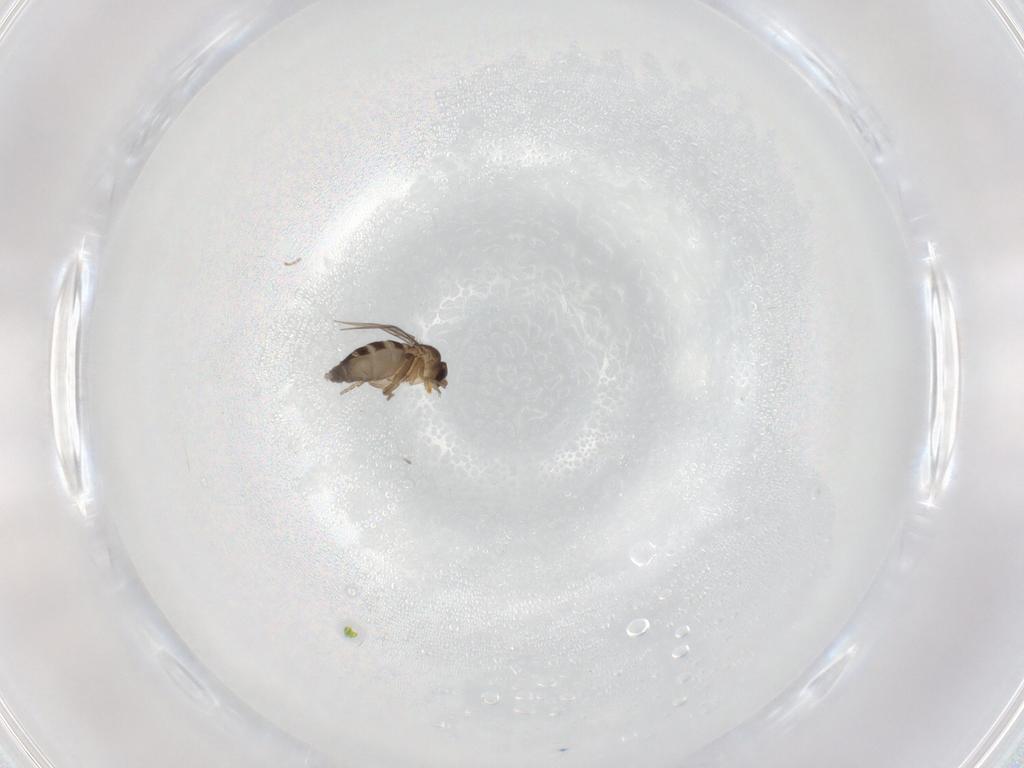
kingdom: Animalia
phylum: Arthropoda
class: Insecta
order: Diptera
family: Phoridae
